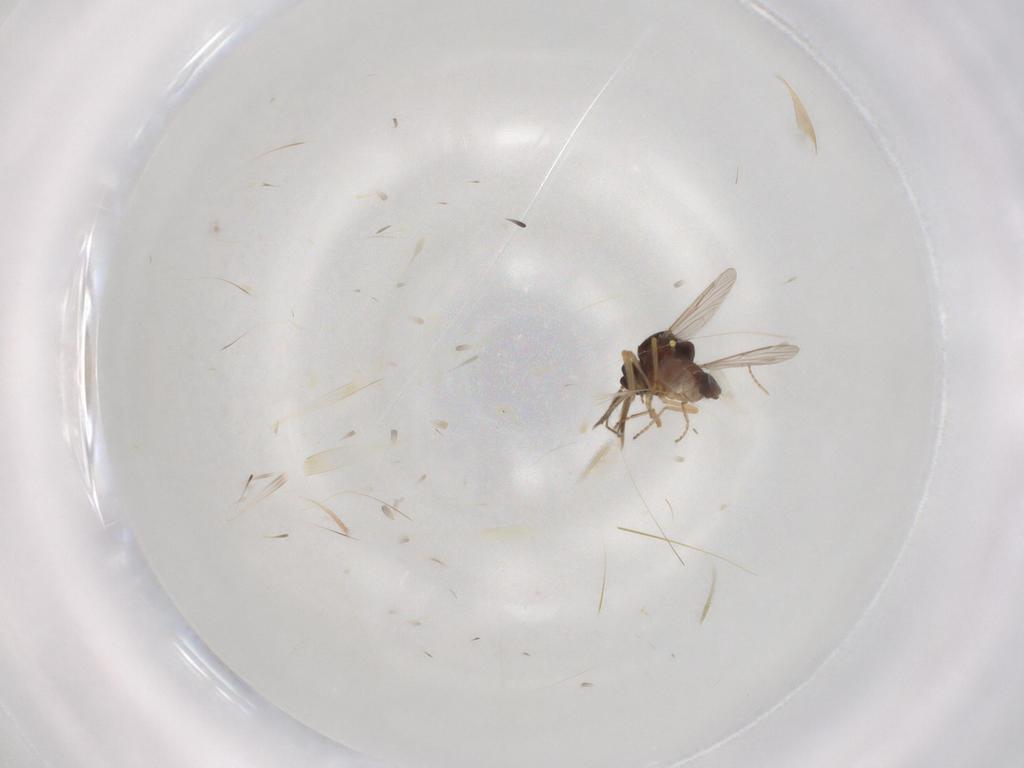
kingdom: Animalia
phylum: Arthropoda
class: Insecta
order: Diptera
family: Ceratopogonidae
